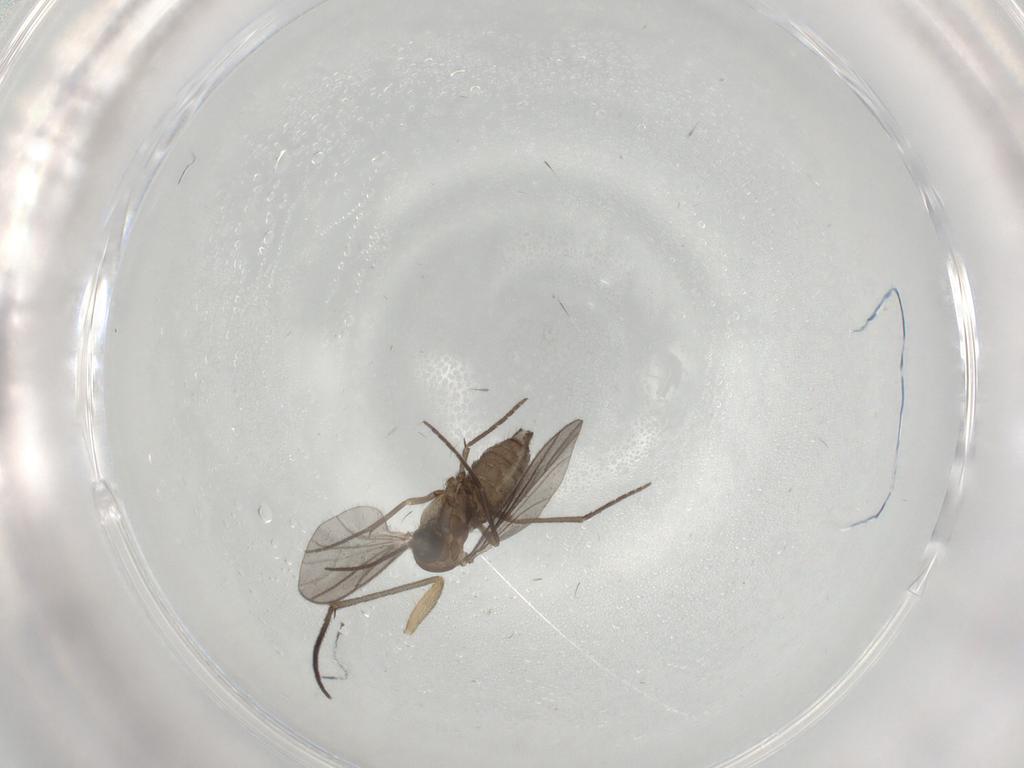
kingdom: Animalia
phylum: Arthropoda
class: Insecta
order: Diptera
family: Sciaridae
